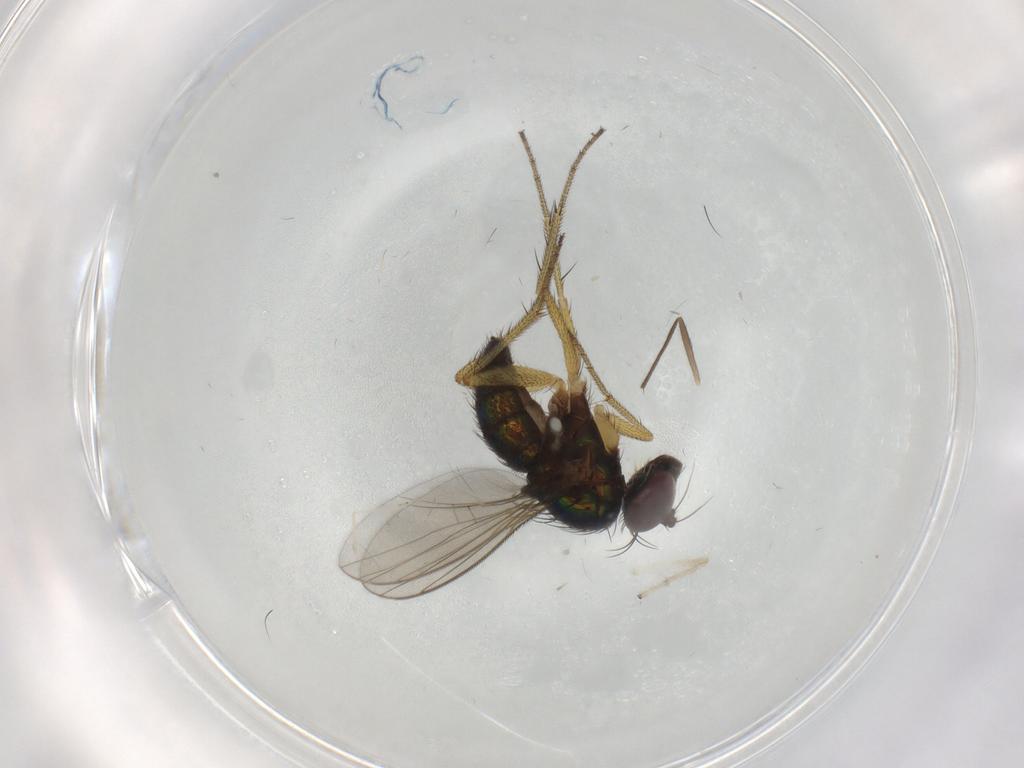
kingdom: Animalia
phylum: Arthropoda
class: Insecta
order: Diptera
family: Chironomidae
